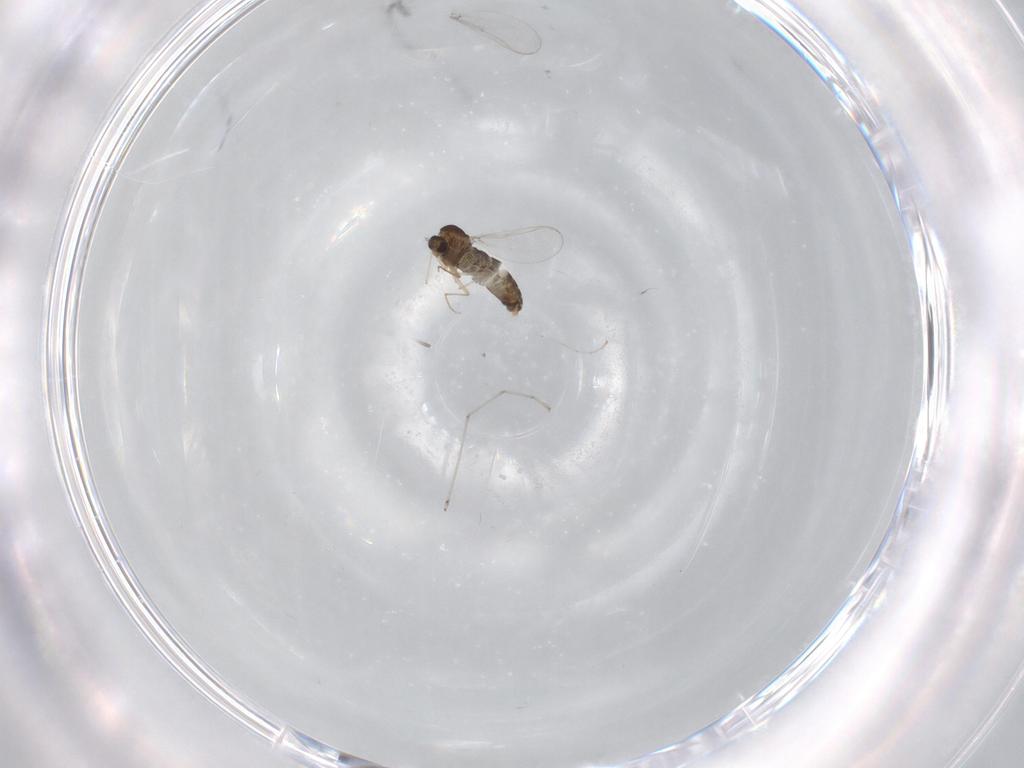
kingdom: Animalia
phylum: Arthropoda
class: Insecta
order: Diptera
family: Chironomidae
